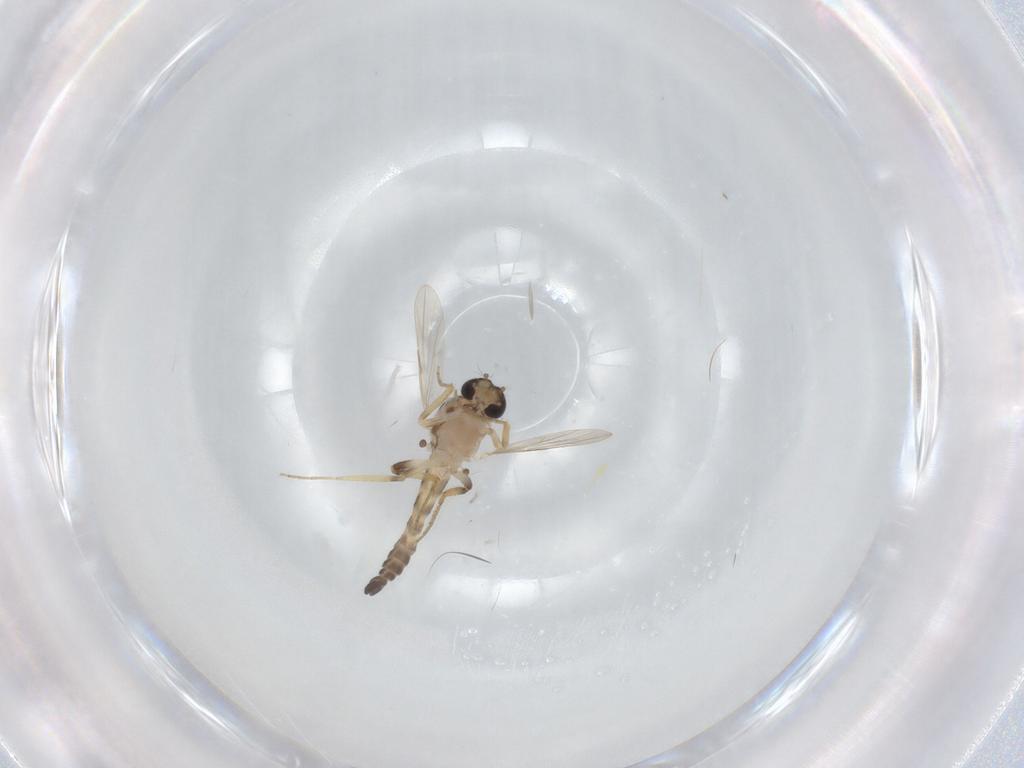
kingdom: Animalia
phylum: Arthropoda
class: Insecta
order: Diptera
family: Ceratopogonidae
